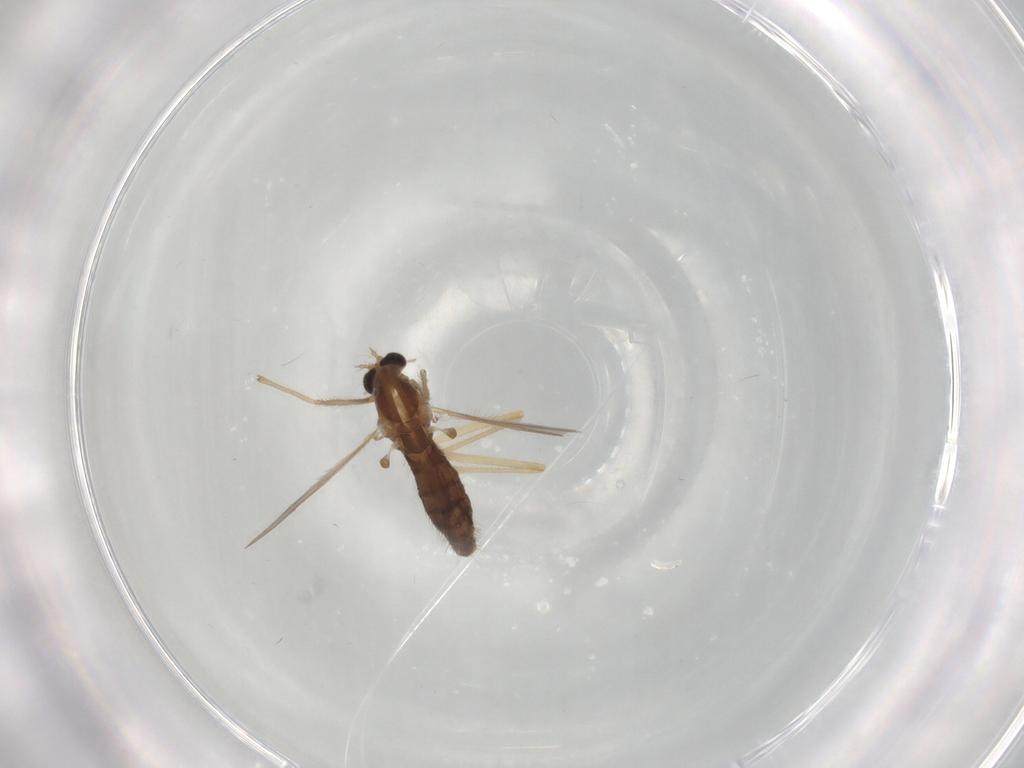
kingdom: Animalia
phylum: Arthropoda
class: Insecta
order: Diptera
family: Chironomidae
